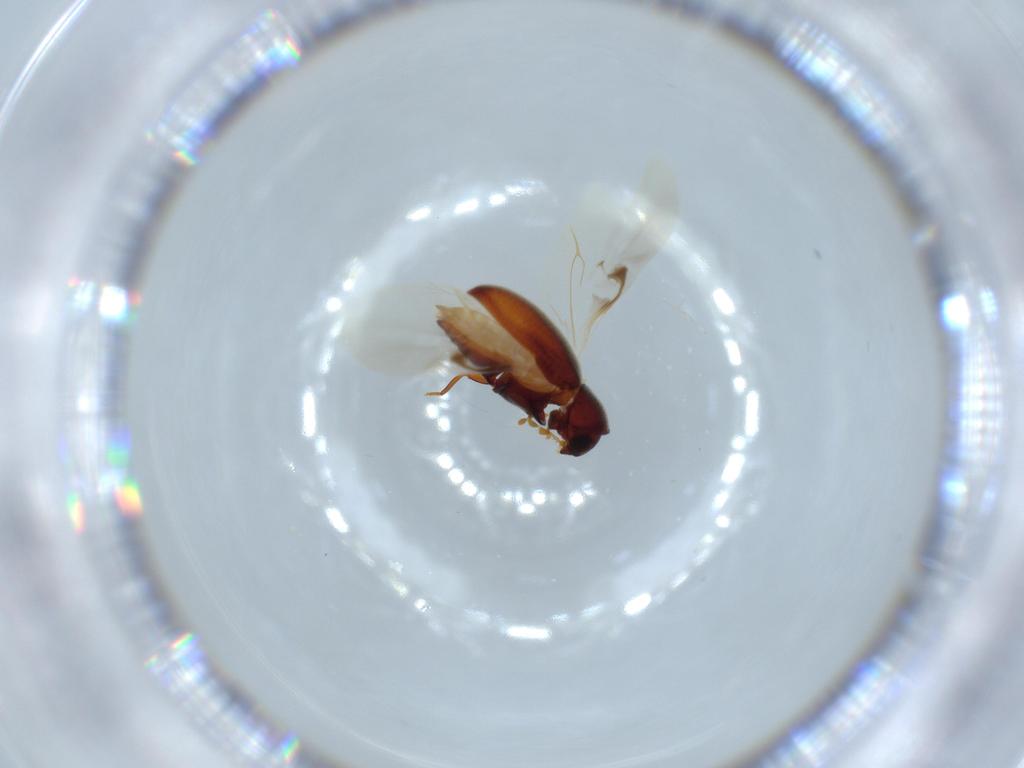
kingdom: Animalia
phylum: Arthropoda
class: Insecta
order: Coleoptera
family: Ptinidae
